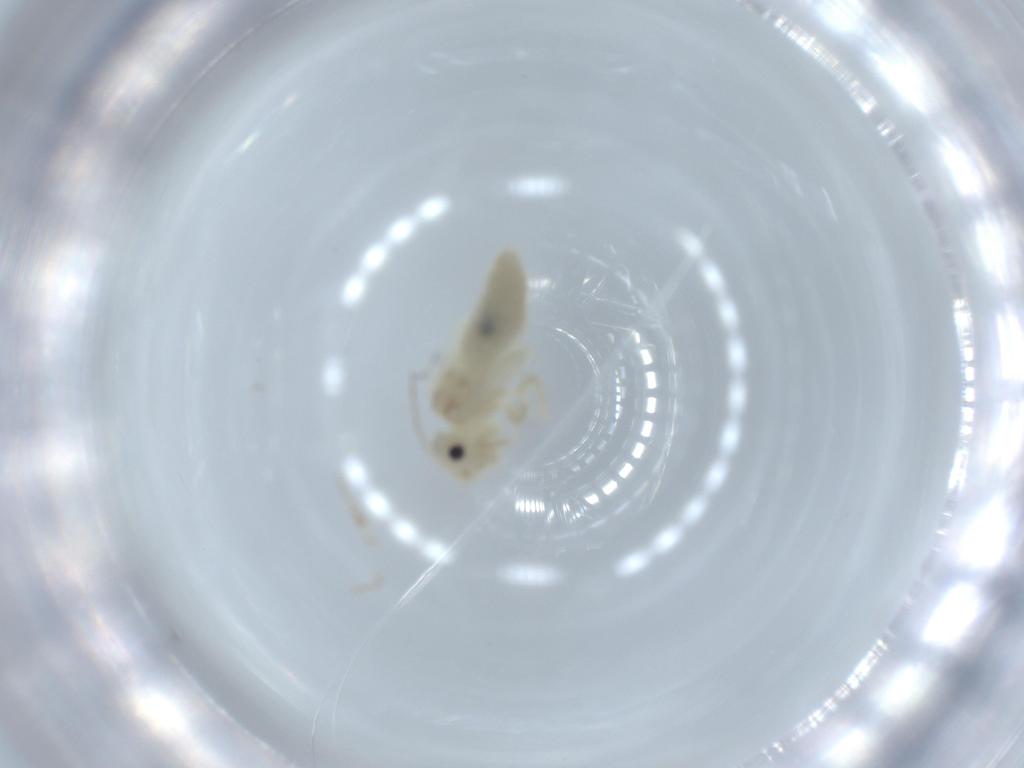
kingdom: Animalia
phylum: Arthropoda
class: Insecta
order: Psocodea
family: Caeciliusidae
